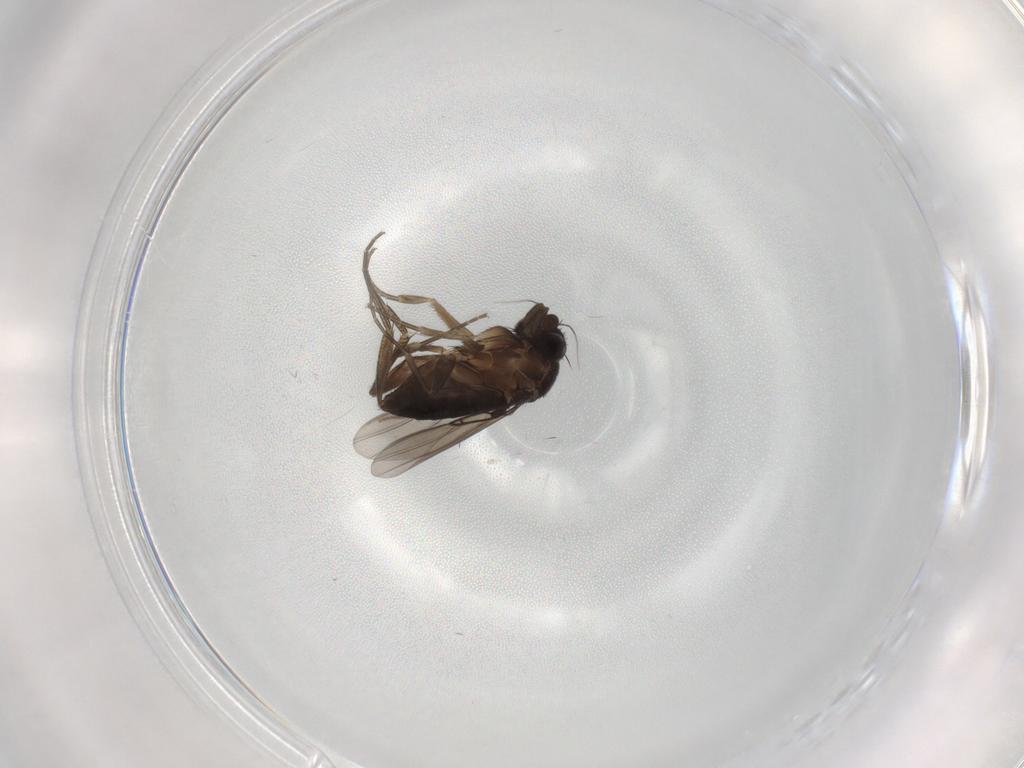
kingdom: Animalia
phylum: Arthropoda
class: Insecta
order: Diptera
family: Phoridae
